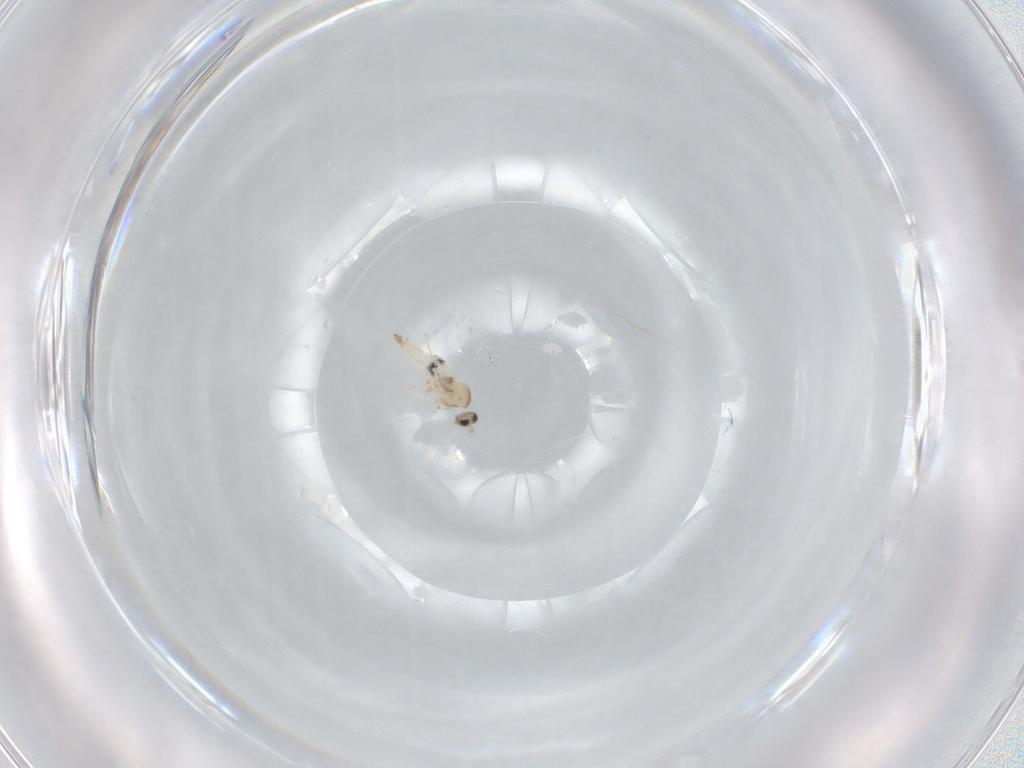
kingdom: Animalia
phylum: Arthropoda
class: Insecta
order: Diptera
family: Cecidomyiidae
